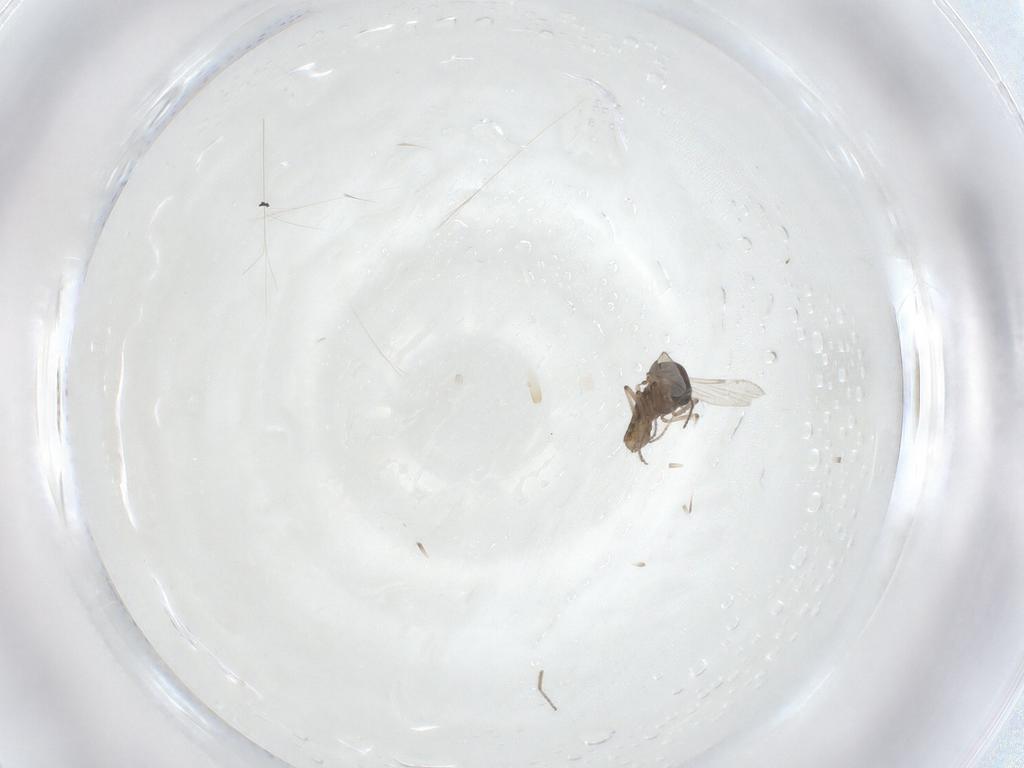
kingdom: Animalia
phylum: Arthropoda
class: Insecta
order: Diptera
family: Ceratopogonidae
